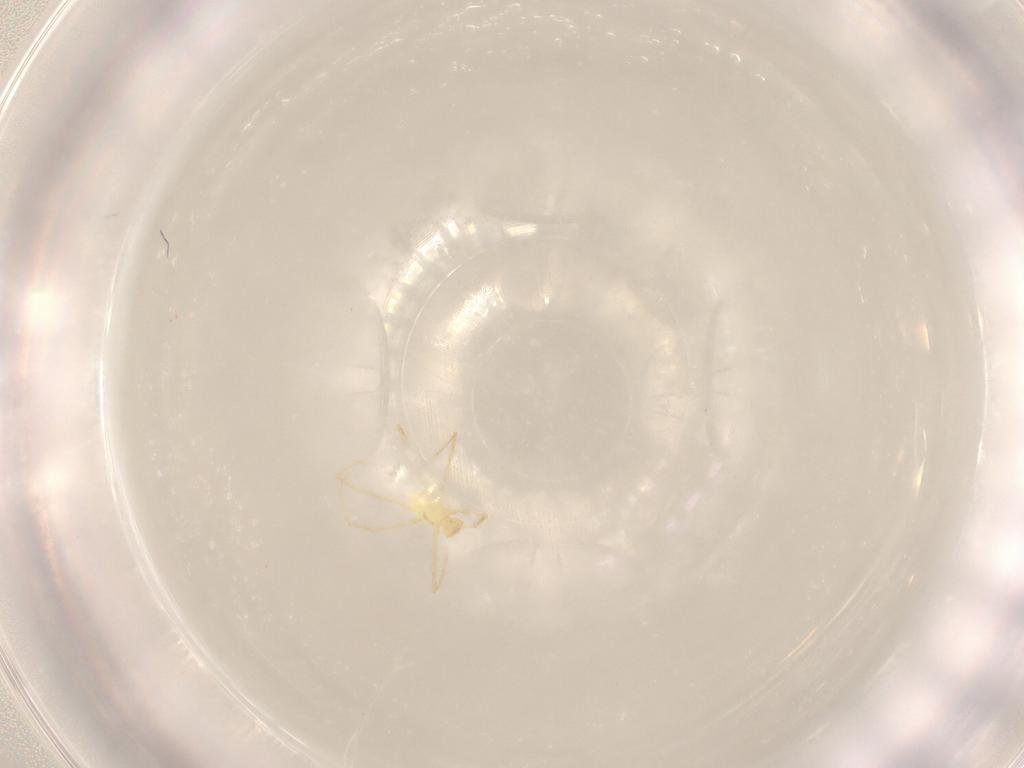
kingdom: Animalia
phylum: Arthropoda
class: Arachnida
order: Trombidiformes
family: Erythraeidae
